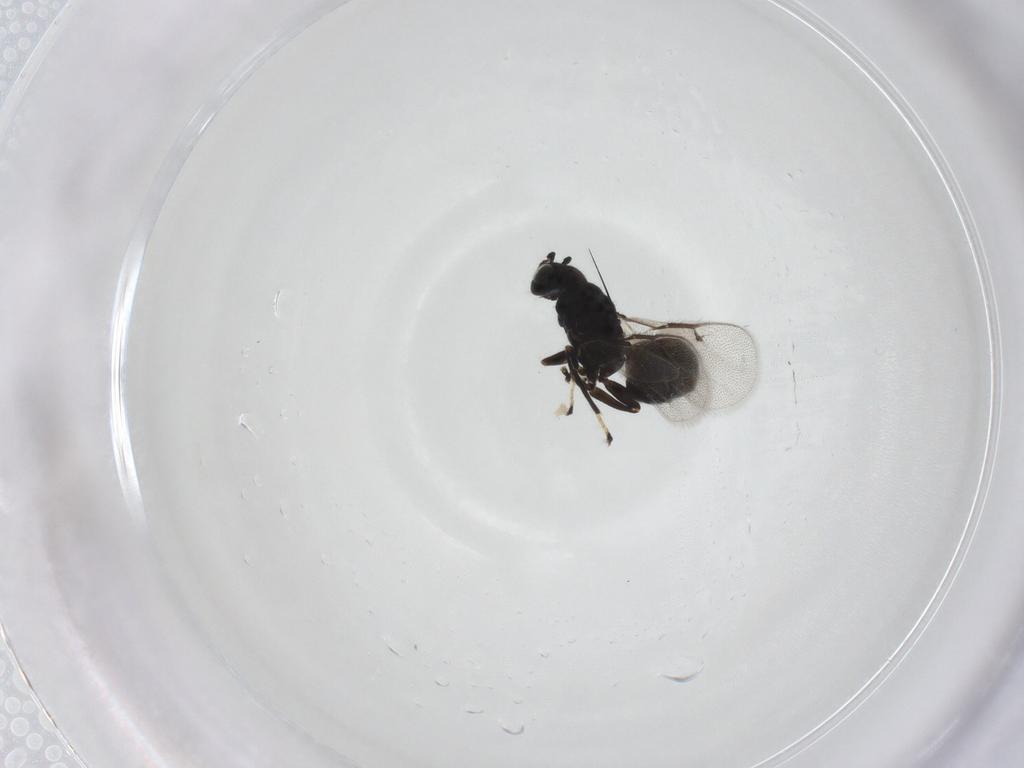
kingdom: Animalia
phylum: Arthropoda
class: Insecta
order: Hymenoptera
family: Eulophidae
